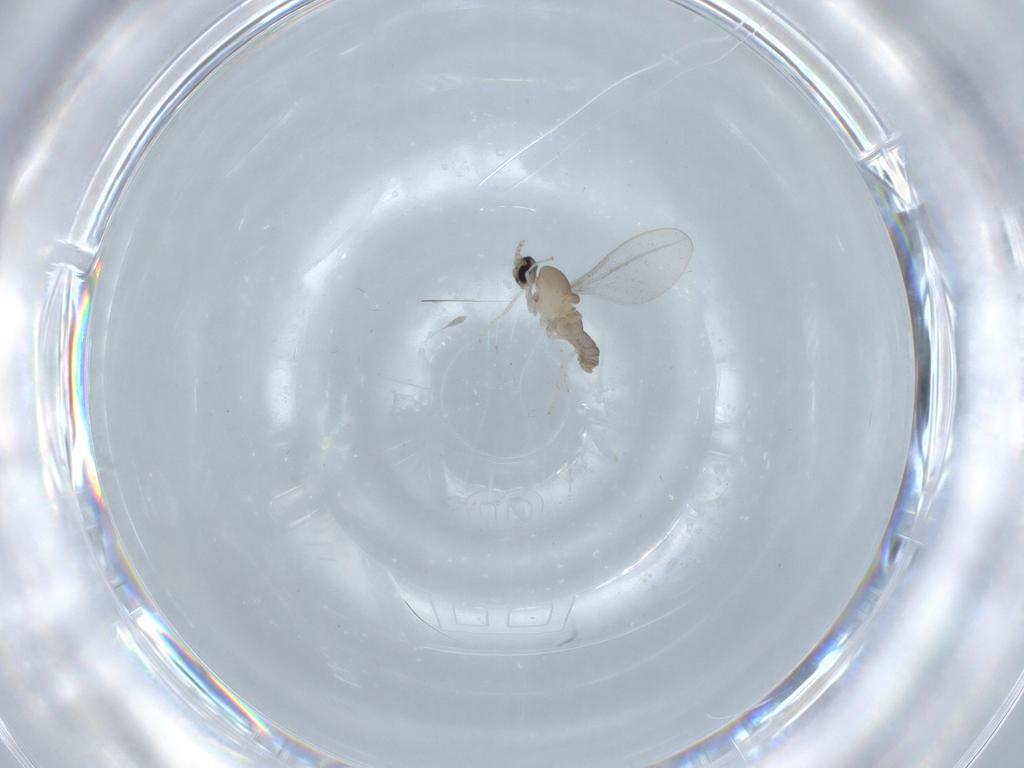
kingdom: Animalia
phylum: Arthropoda
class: Insecta
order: Diptera
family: Cecidomyiidae
